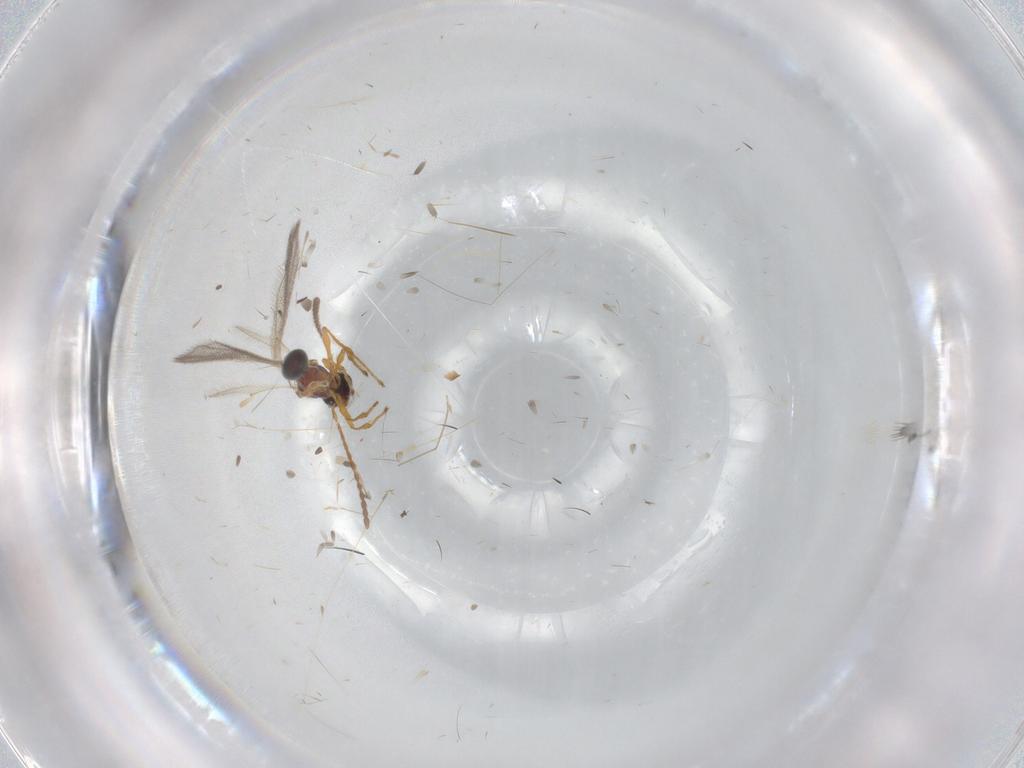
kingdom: Animalia
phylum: Arthropoda
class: Insecta
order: Hymenoptera
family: Diapriidae
